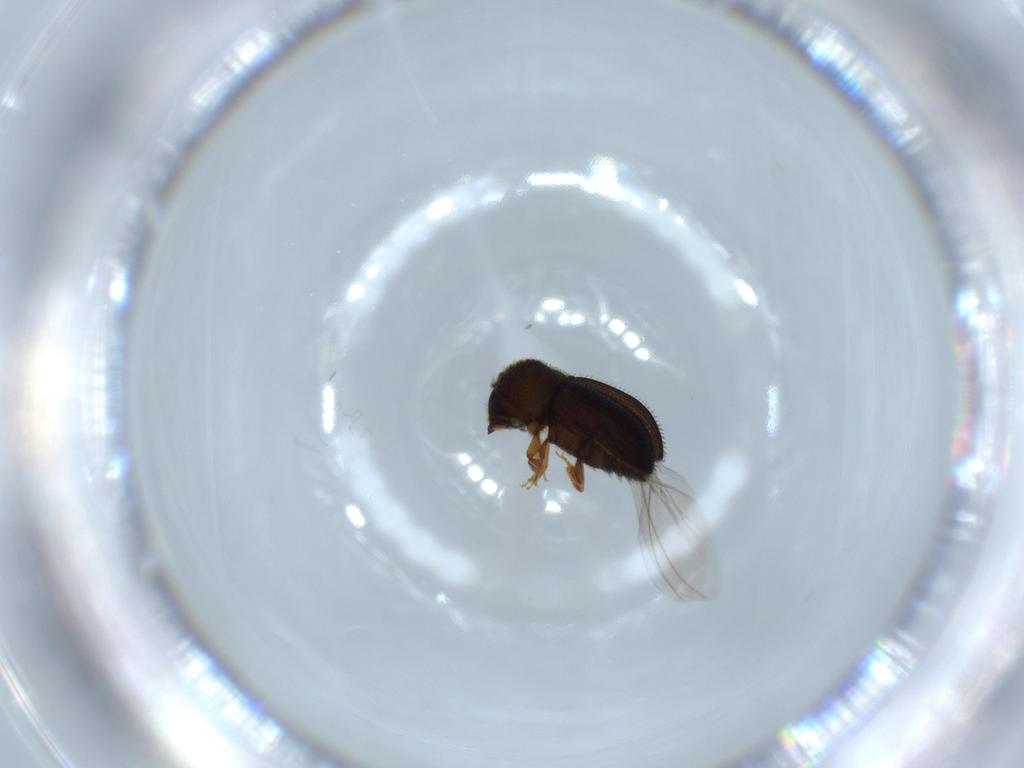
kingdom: Animalia
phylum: Arthropoda
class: Insecta
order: Coleoptera
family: Curculionidae
